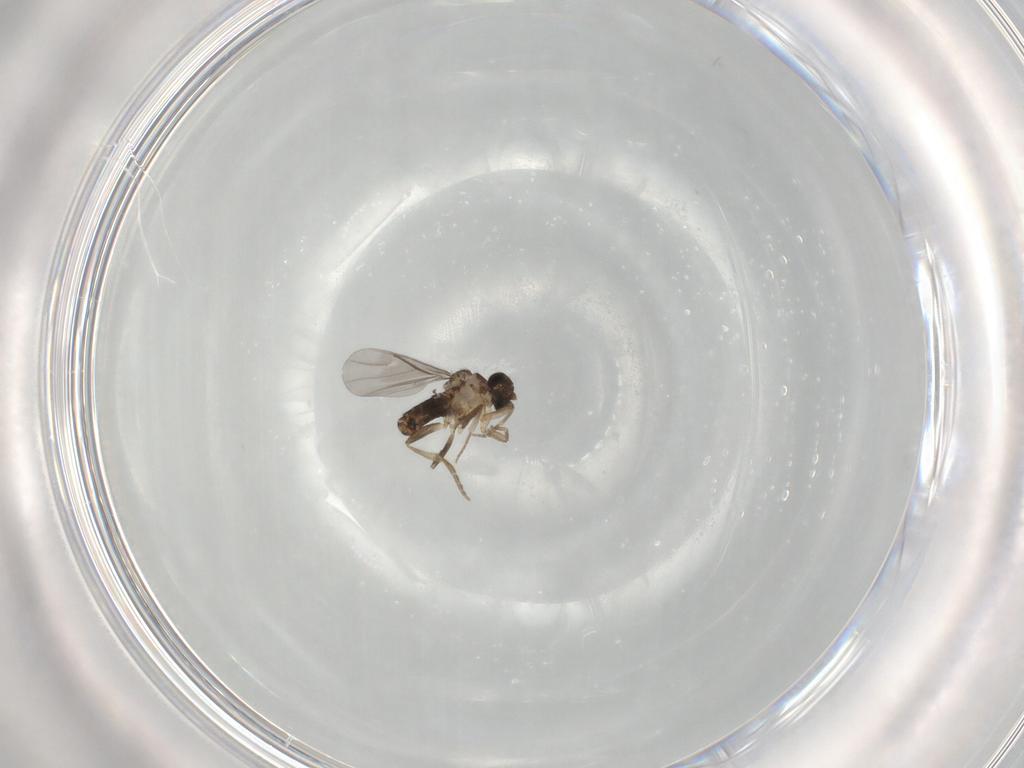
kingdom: Animalia
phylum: Arthropoda
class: Insecta
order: Diptera
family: Phoridae
